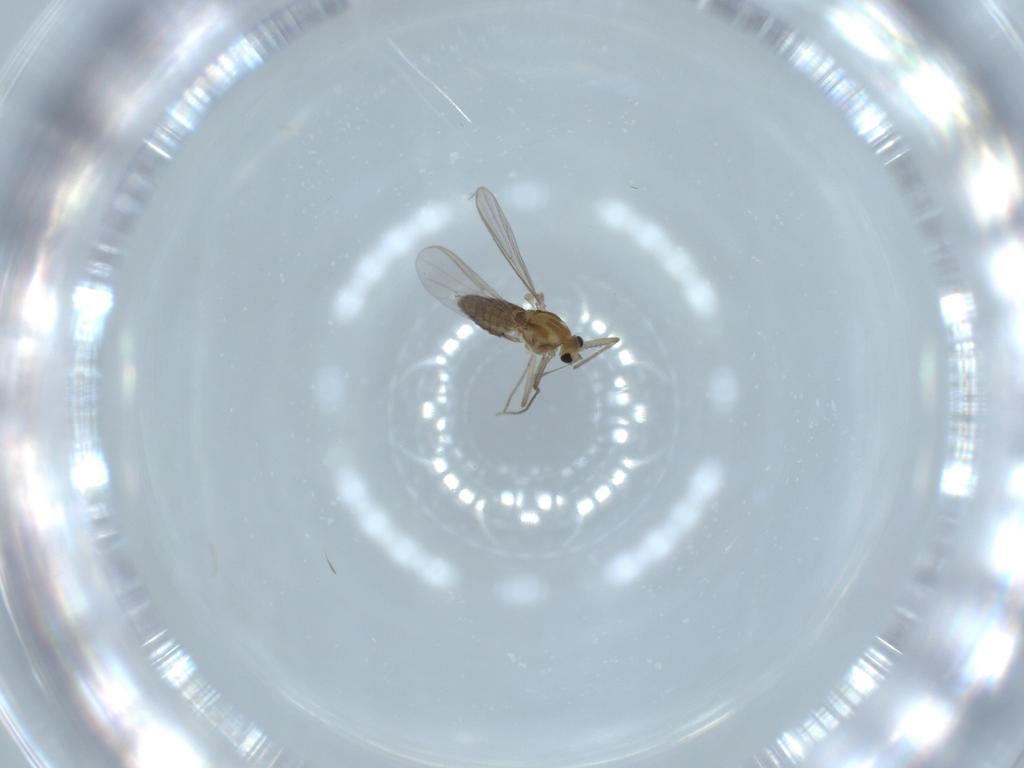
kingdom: Animalia
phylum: Arthropoda
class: Insecta
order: Diptera
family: Chironomidae
